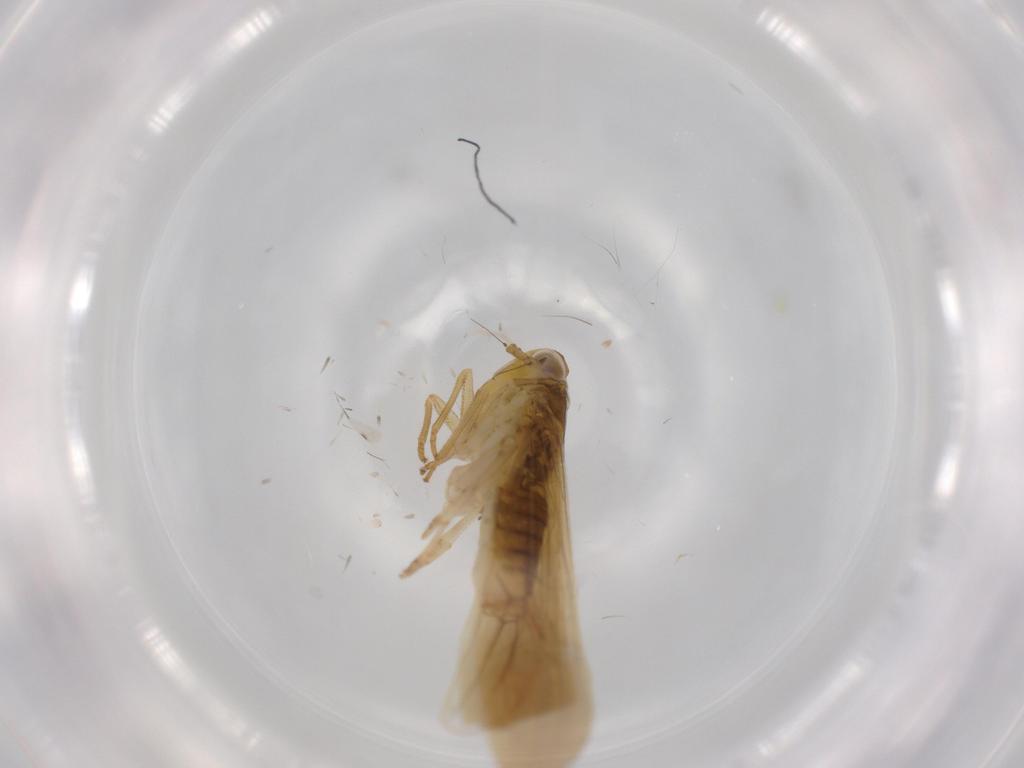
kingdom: Animalia
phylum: Arthropoda
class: Insecta
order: Hemiptera
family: Delphacidae
